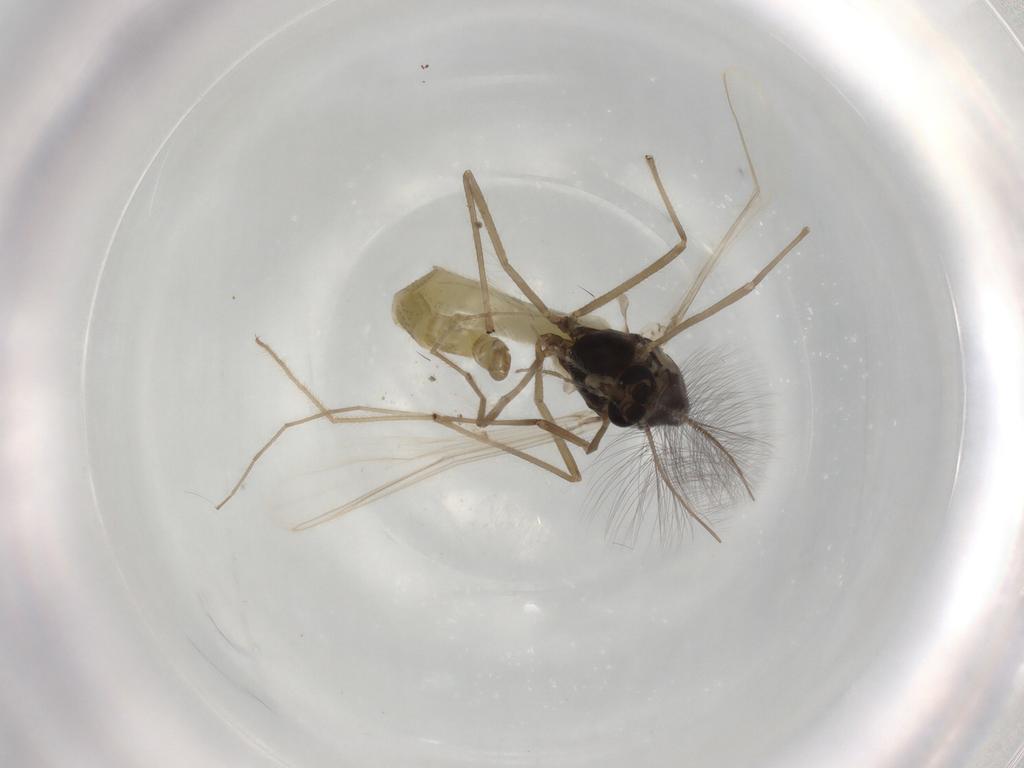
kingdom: Animalia
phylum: Arthropoda
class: Insecta
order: Diptera
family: Chironomidae
